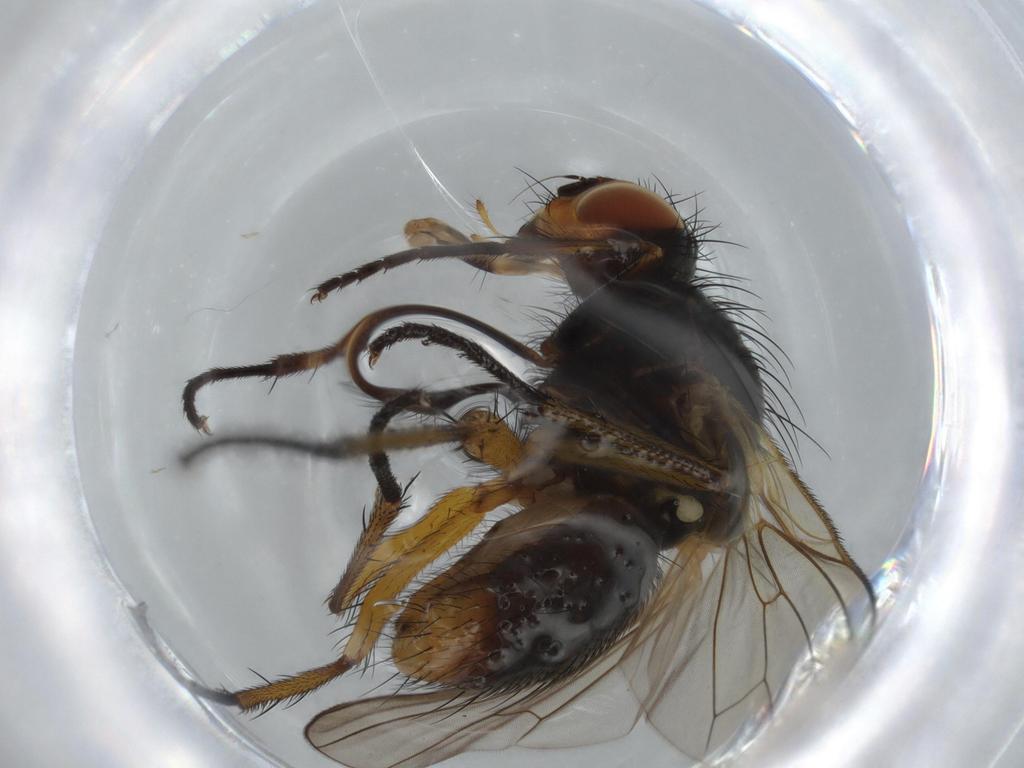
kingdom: Animalia
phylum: Arthropoda
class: Insecta
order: Diptera
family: Anthomyiidae
